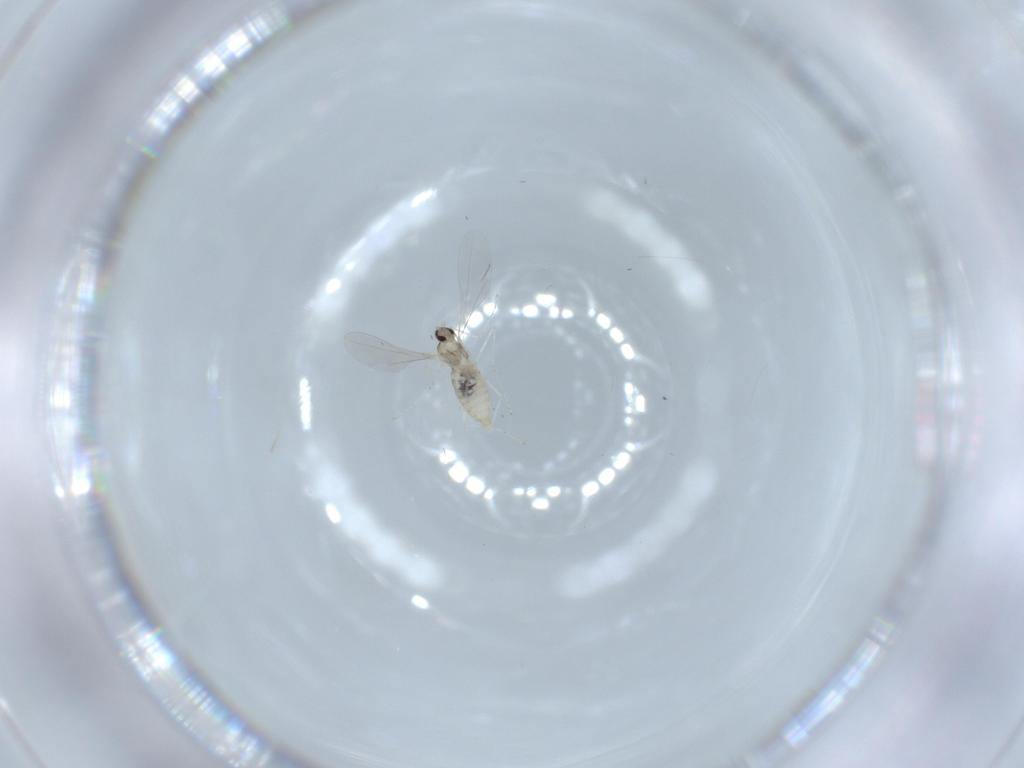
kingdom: Animalia
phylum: Arthropoda
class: Insecta
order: Diptera
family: Cecidomyiidae
